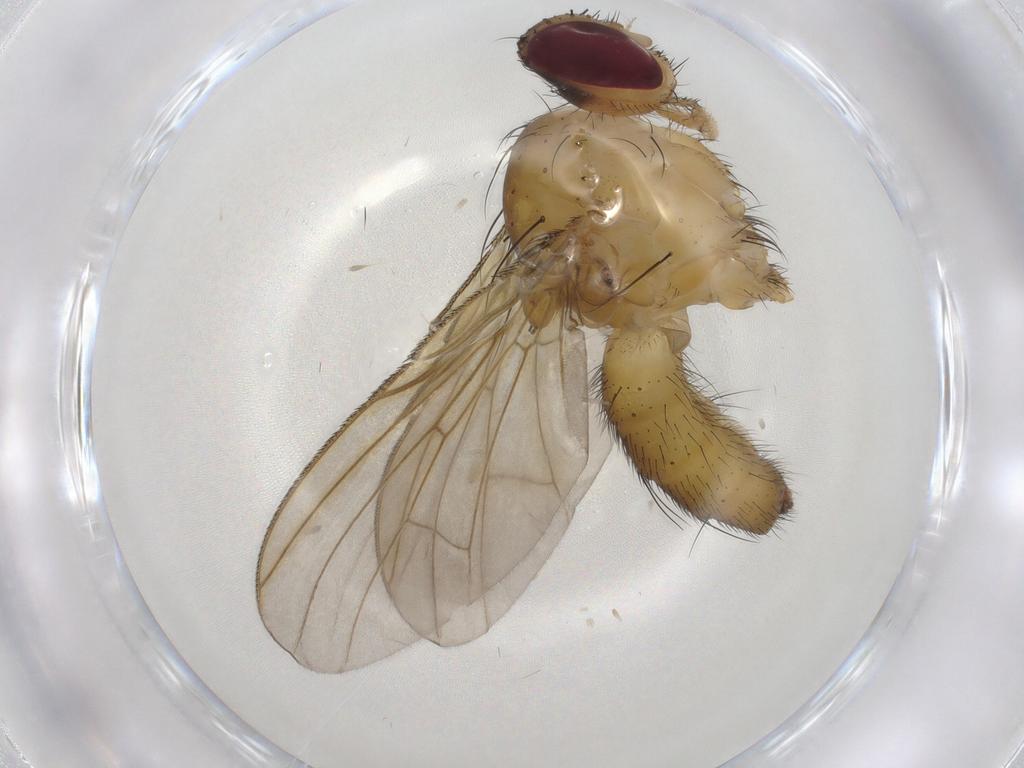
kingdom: Animalia
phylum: Arthropoda
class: Insecta
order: Diptera
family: Calliphoridae
